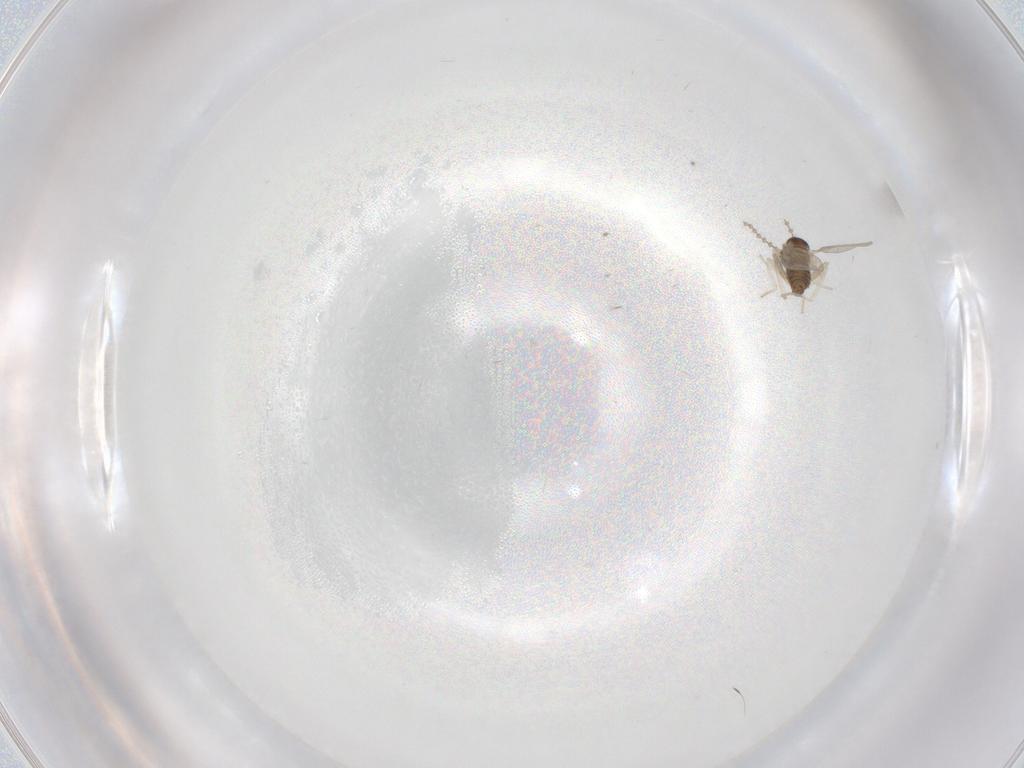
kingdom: Animalia
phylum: Arthropoda
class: Insecta
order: Diptera
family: Cecidomyiidae
